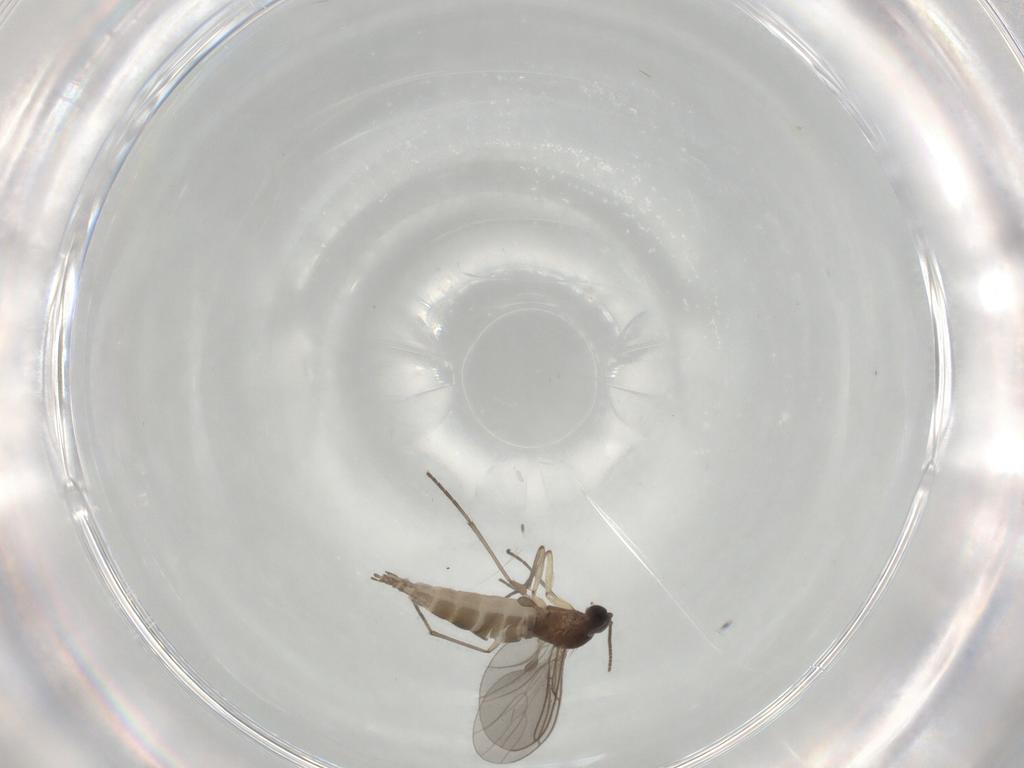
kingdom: Animalia
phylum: Arthropoda
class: Insecta
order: Diptera
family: Sciaridae
